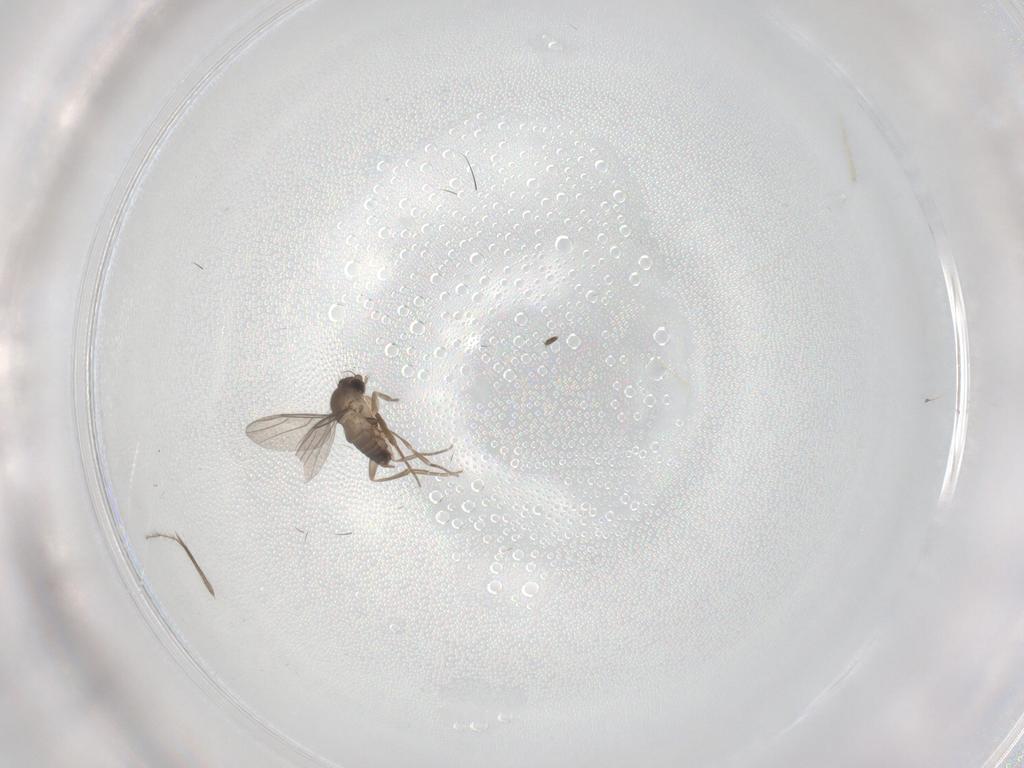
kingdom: Animalia
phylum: Arthropoda
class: Insecta
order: Diptera
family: Phoridae
